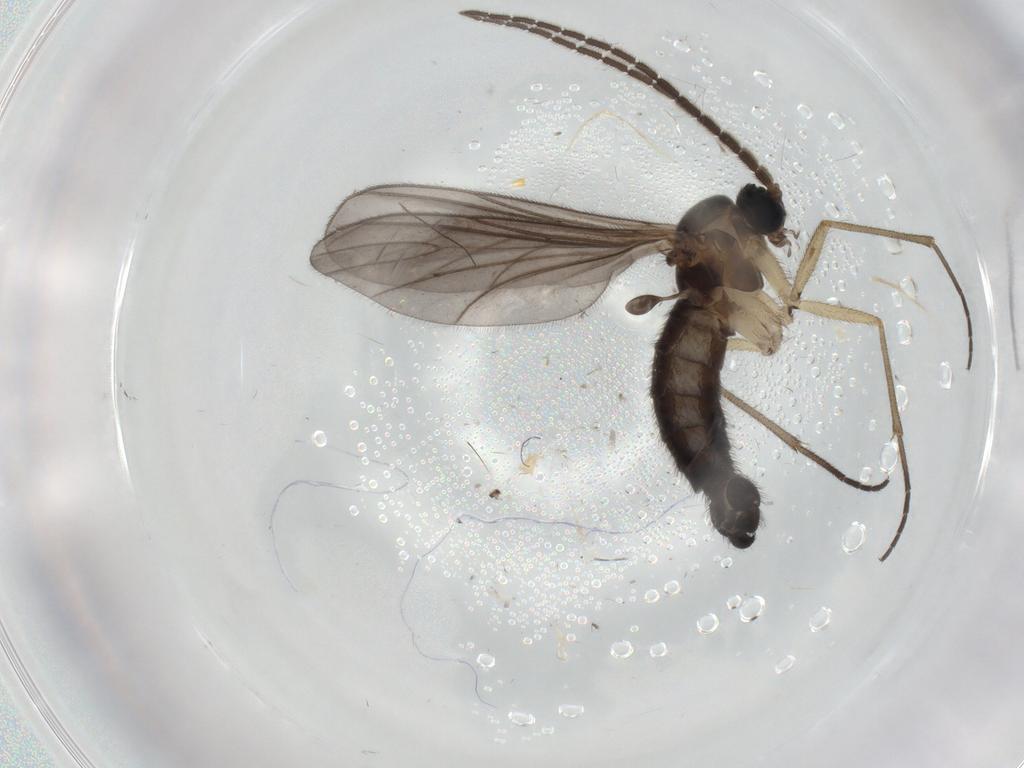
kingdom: Animalia
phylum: Arthropoda
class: Insecta
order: Diptera
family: Sciaridae
